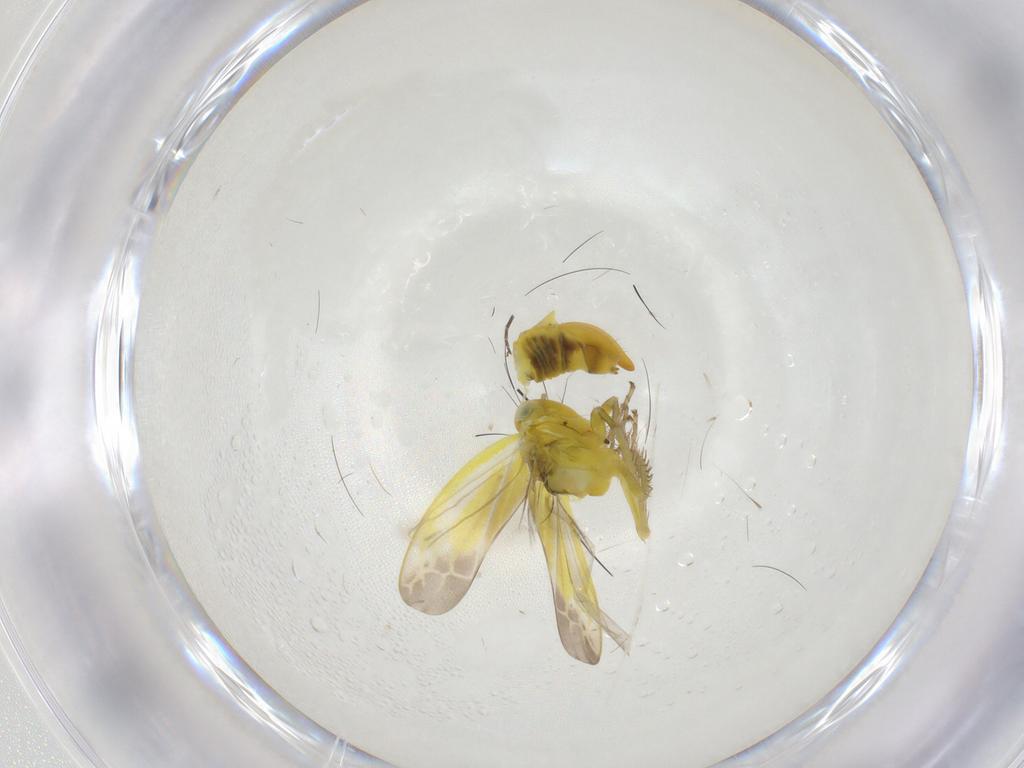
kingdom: Animalia
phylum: Arthropoda
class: Insecta
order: Hemiptera
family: Cicadellidae
